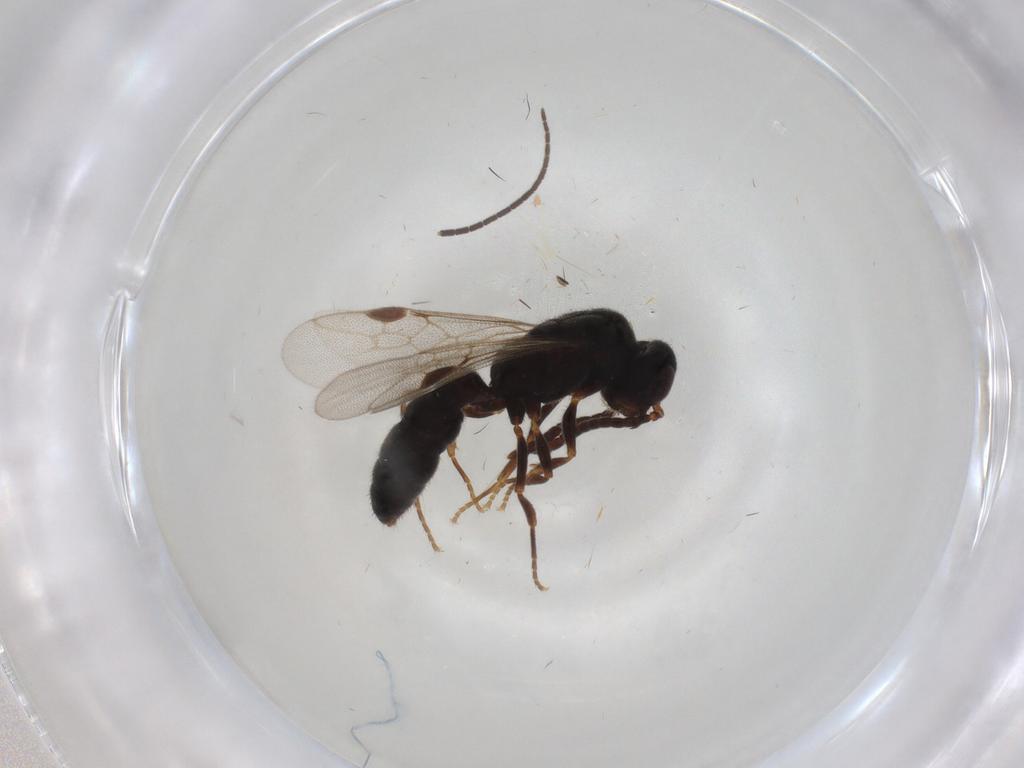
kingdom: Animalia
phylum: Arthropoda
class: Insecta
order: Hymenoptera
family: Formicidae
